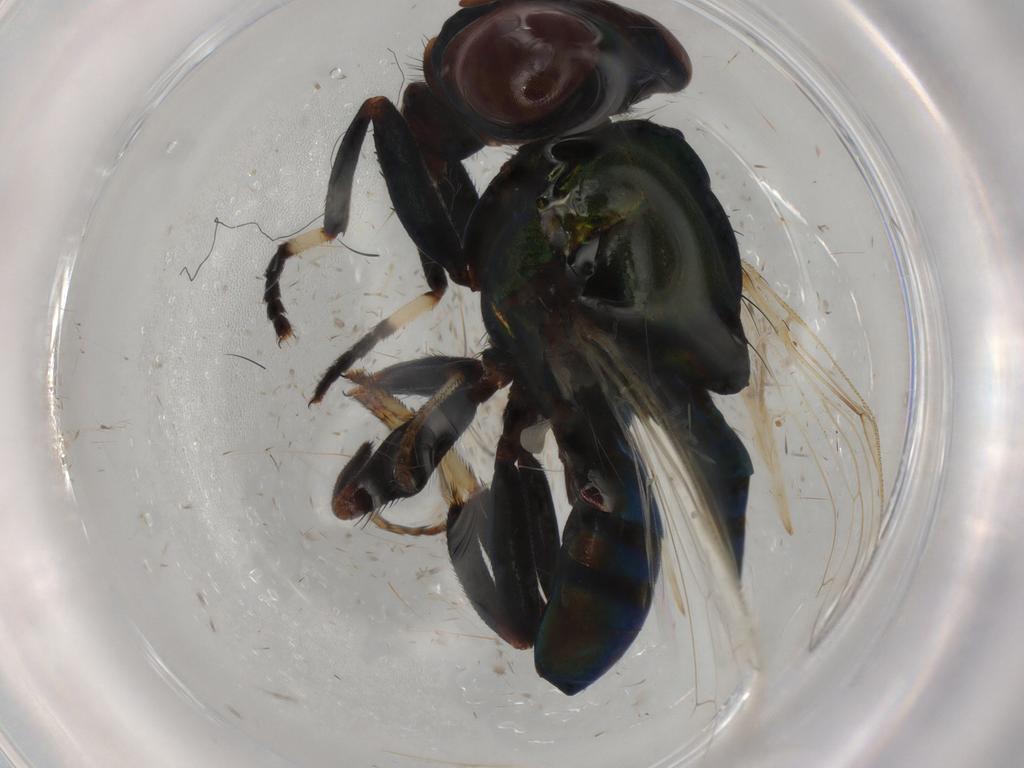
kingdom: Animalia
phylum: Arthropoda
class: Insecta
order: Diptera
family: Ulidiidae
